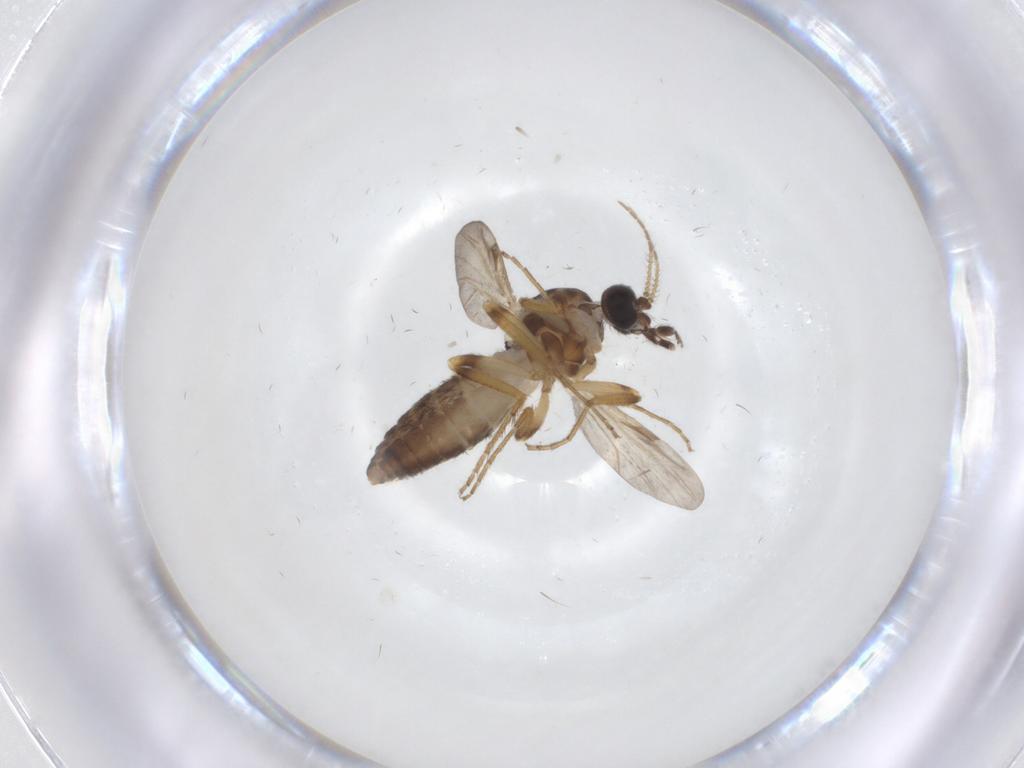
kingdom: Animalia
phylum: Arthropoda
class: Insecta
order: Diptera
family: Ceratopogonidae
